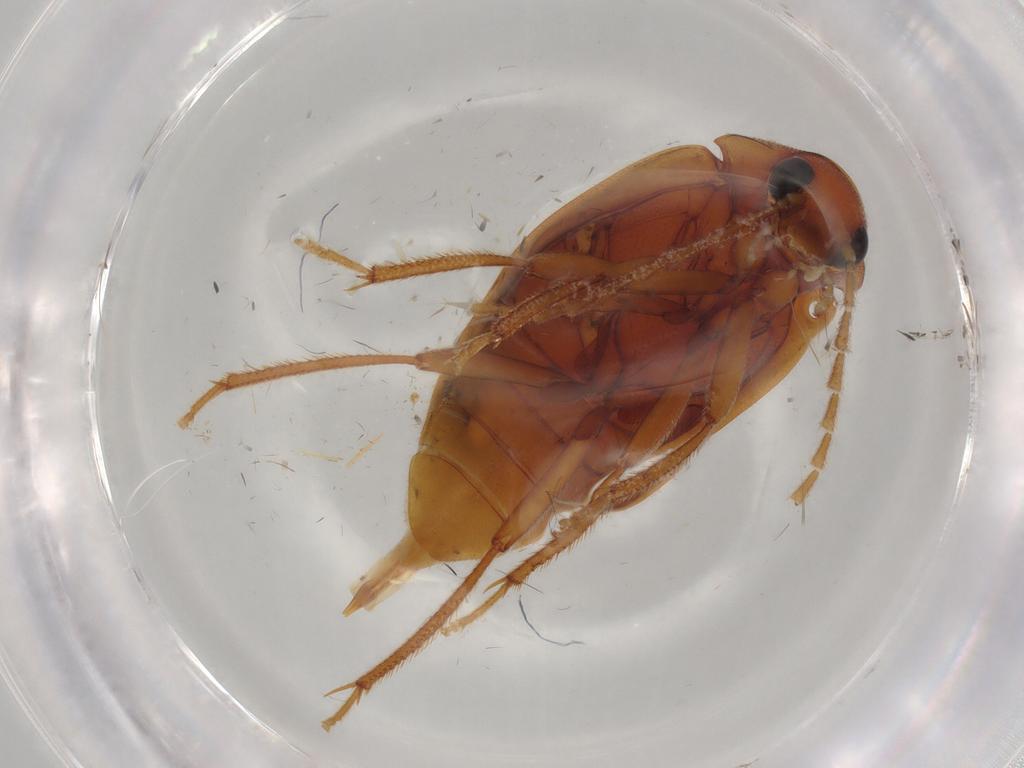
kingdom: Animalia
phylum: Arthropoda
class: Insecta
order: Coleoptera
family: Ptilodactylidae
